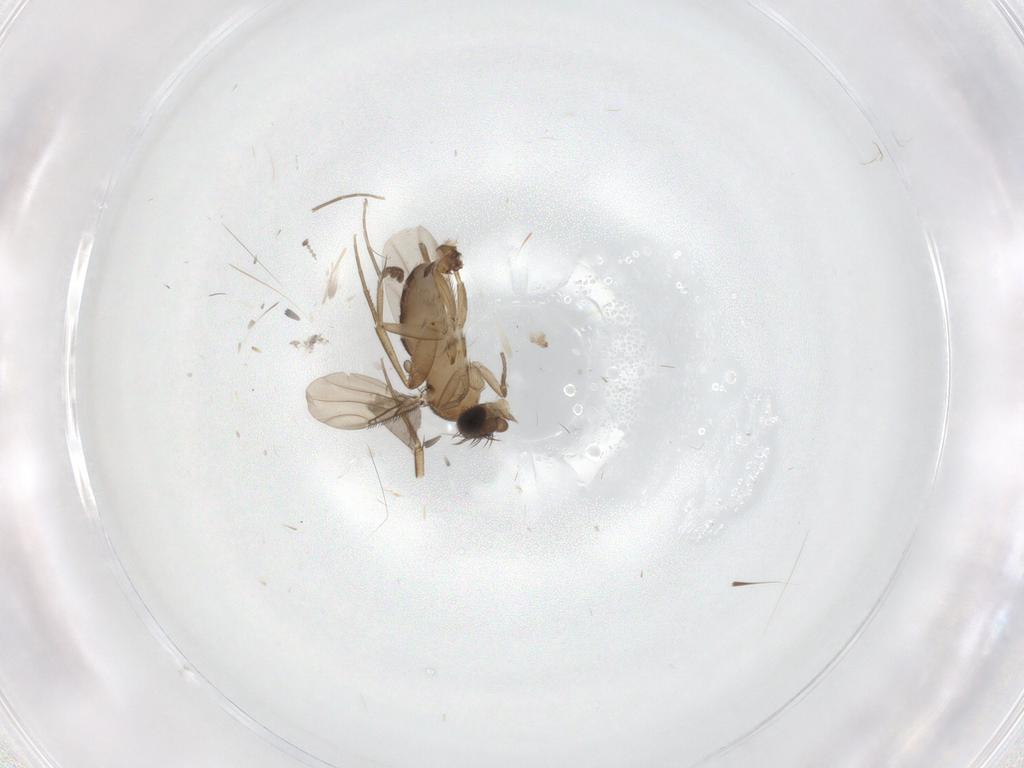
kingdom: Animalia
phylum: Arthropoda
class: Insecta
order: Diptera
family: Phoridae
